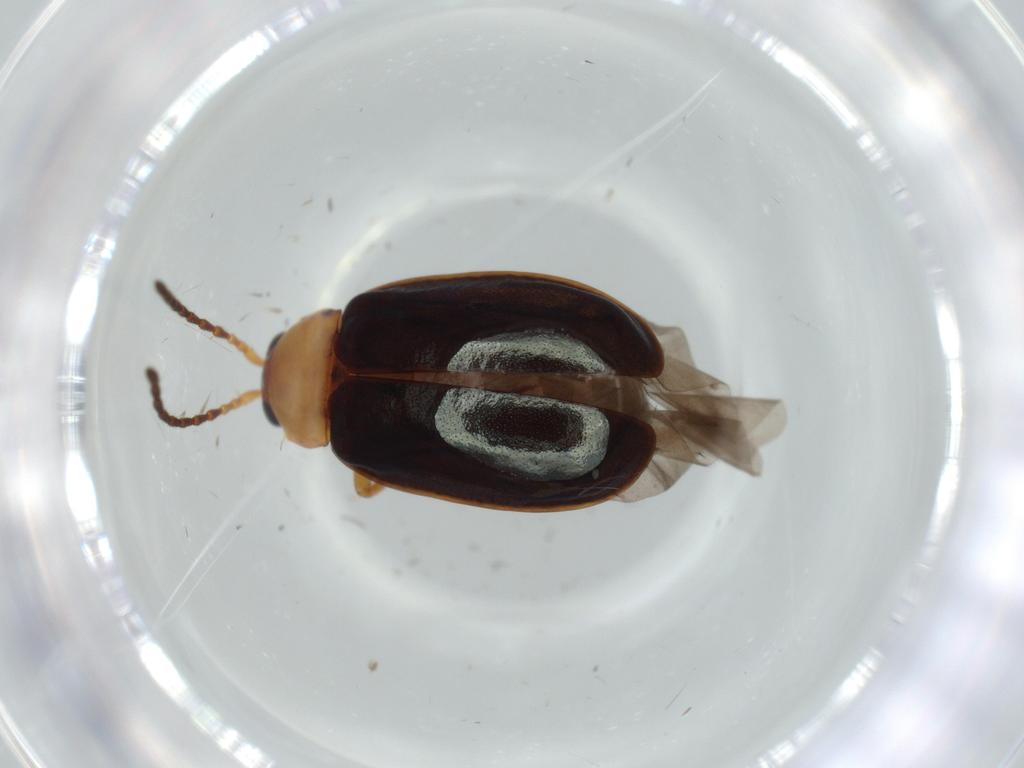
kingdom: Animalia
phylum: Arthropoda
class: Insecta
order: Coleoptera
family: Chrysomelidae
